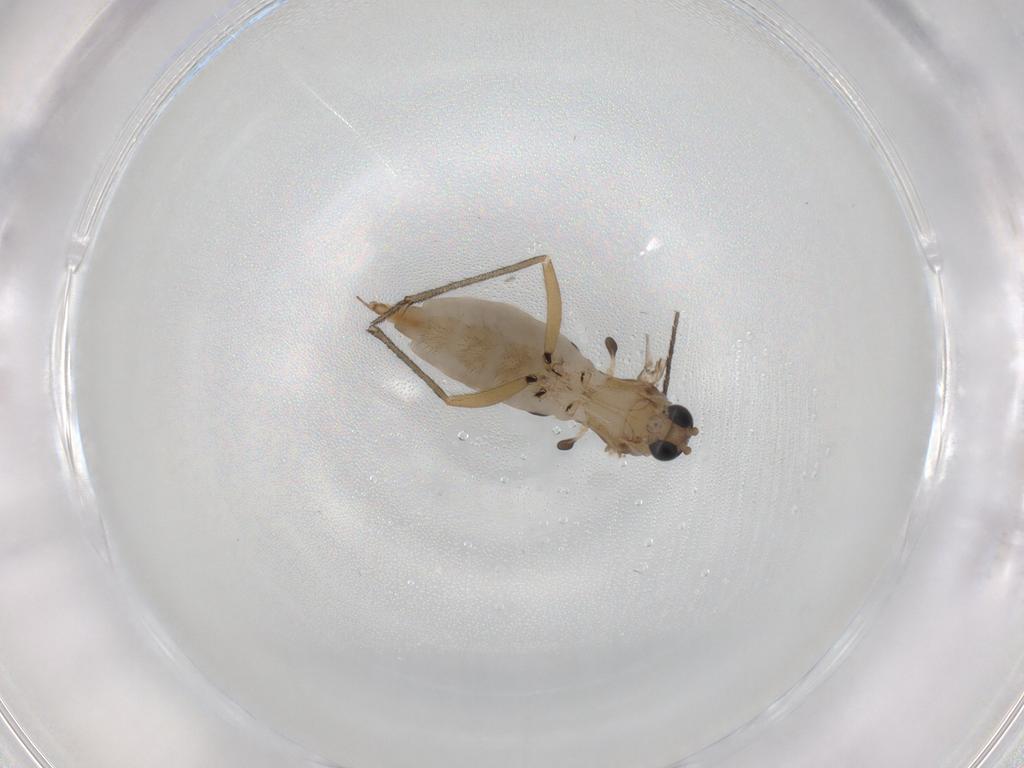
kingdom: Animalia
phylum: Arthropoda
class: Insecta
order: Diptera
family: Sciaridae
